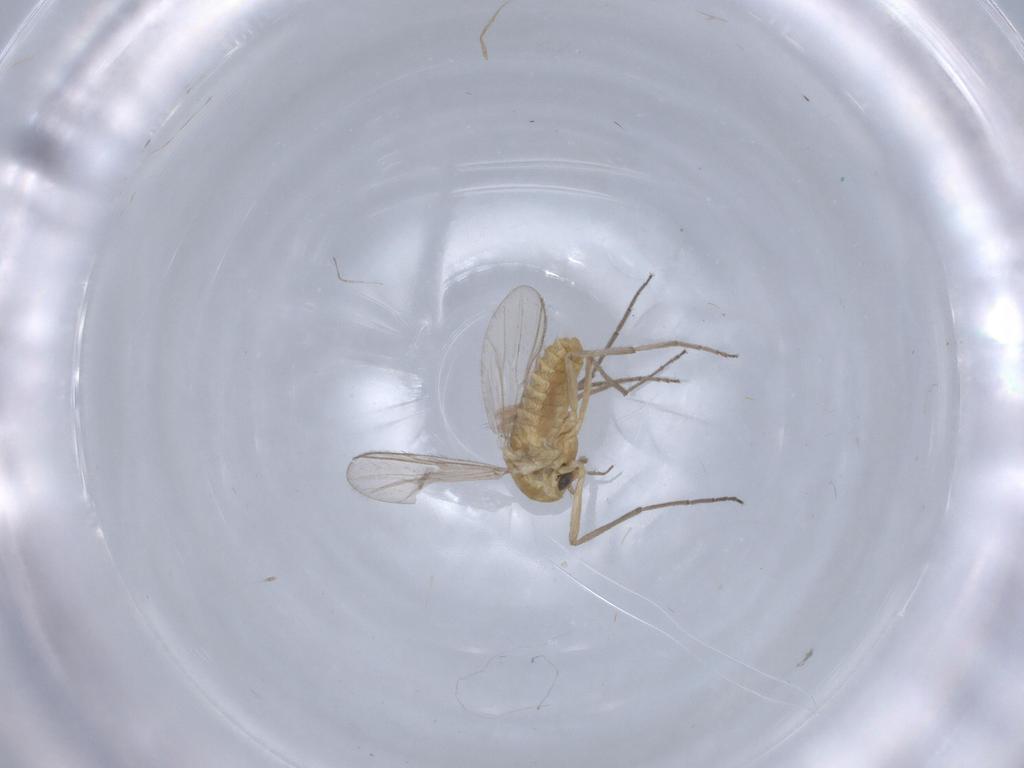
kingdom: Animalia
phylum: Arthropoda
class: Insecta
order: Diptera
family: Chironomidae
